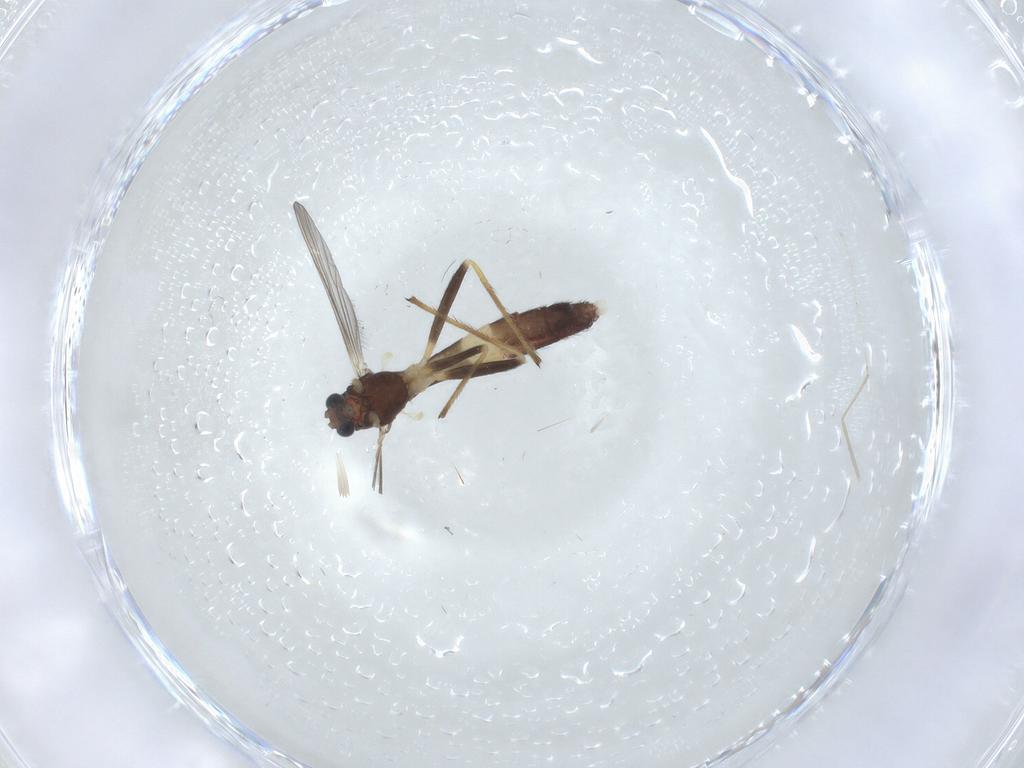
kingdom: Animalia
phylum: Arthropoda
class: Insecta
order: Diptera
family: Chironomidae
